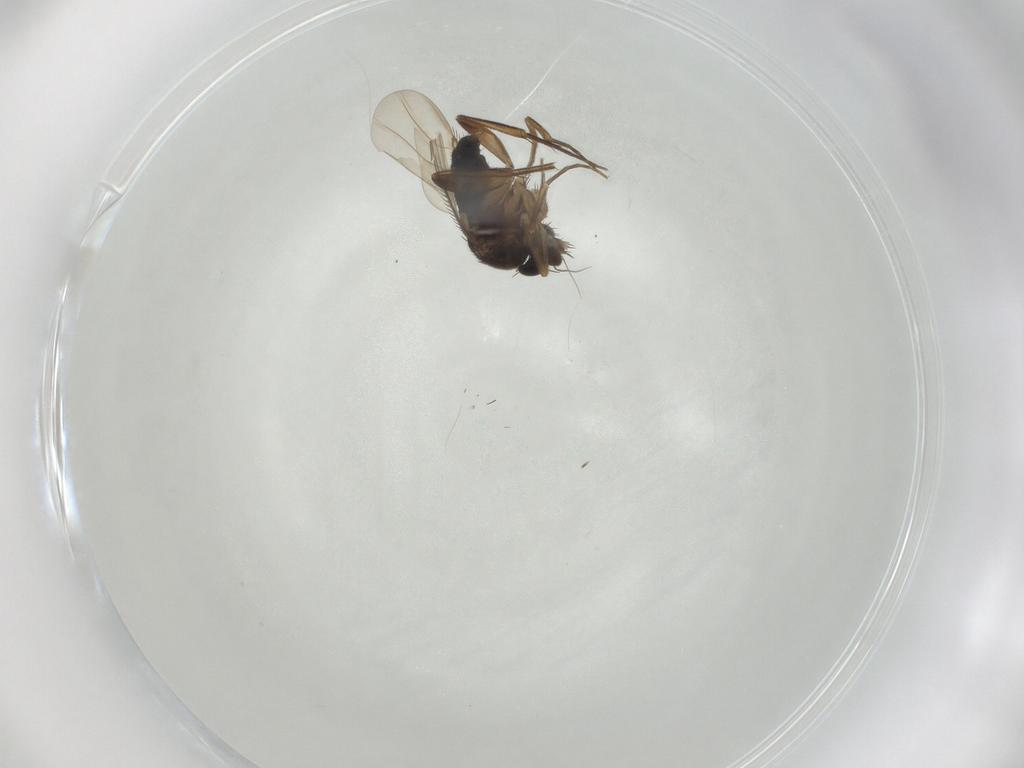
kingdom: Animalia
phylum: Arthropoda
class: Insecta
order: Diptera
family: Phoridae
